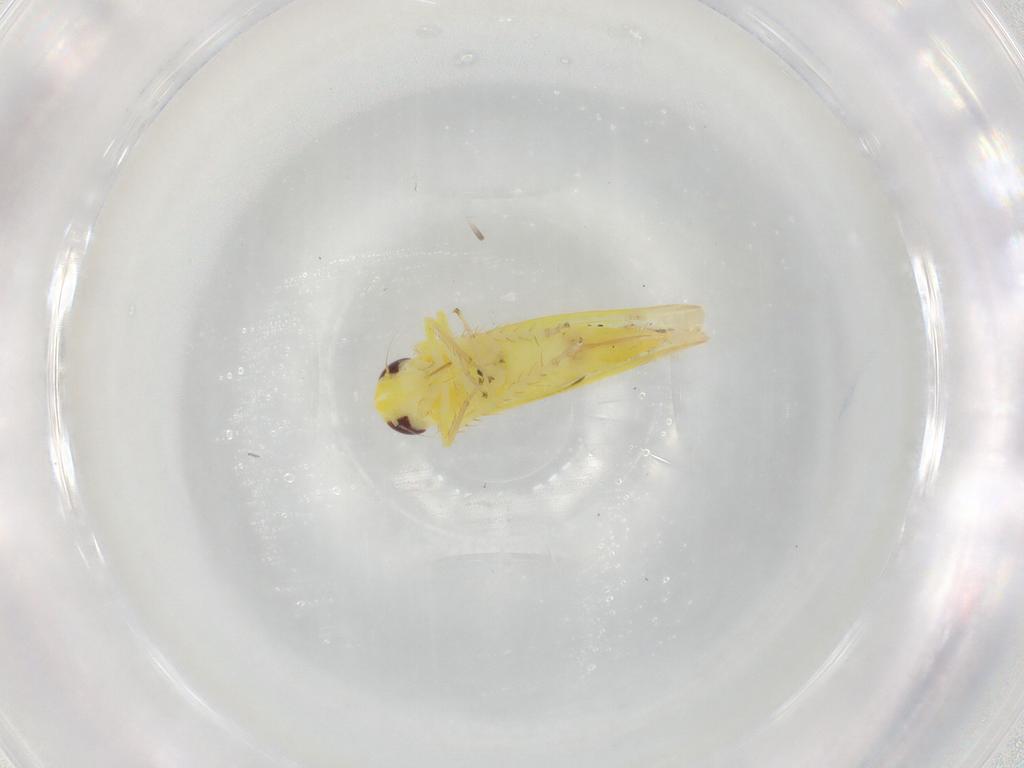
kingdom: Animalia
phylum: Arthropoda
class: Insecta
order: Hemiptera
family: Cicadellidae
